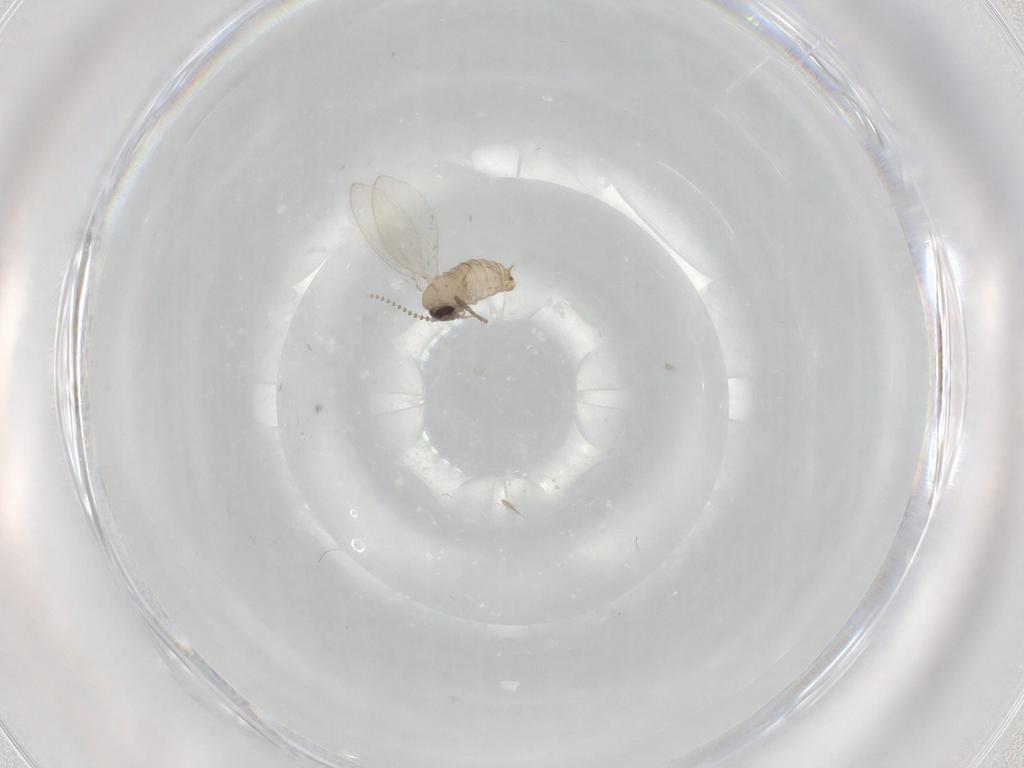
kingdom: Animalia
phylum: Arthropoda
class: Insecta
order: Diptera
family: Psychodidae
